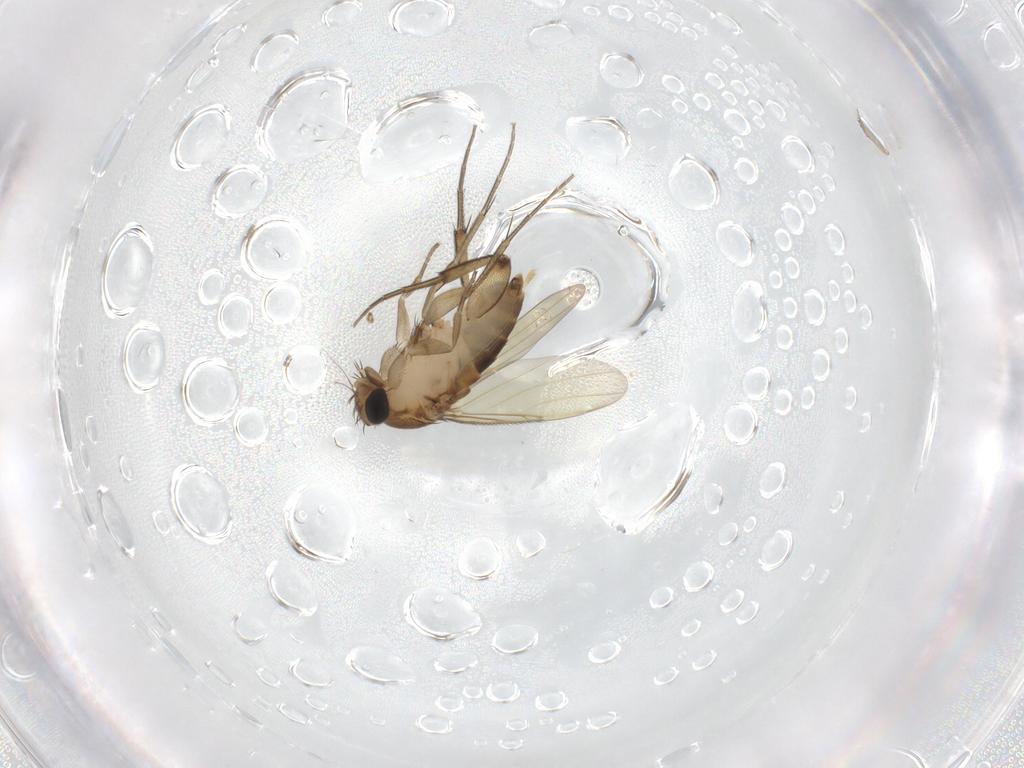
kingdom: Animalia
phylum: Arthropoda
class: Insecta
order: Diptera
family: Phoridae
